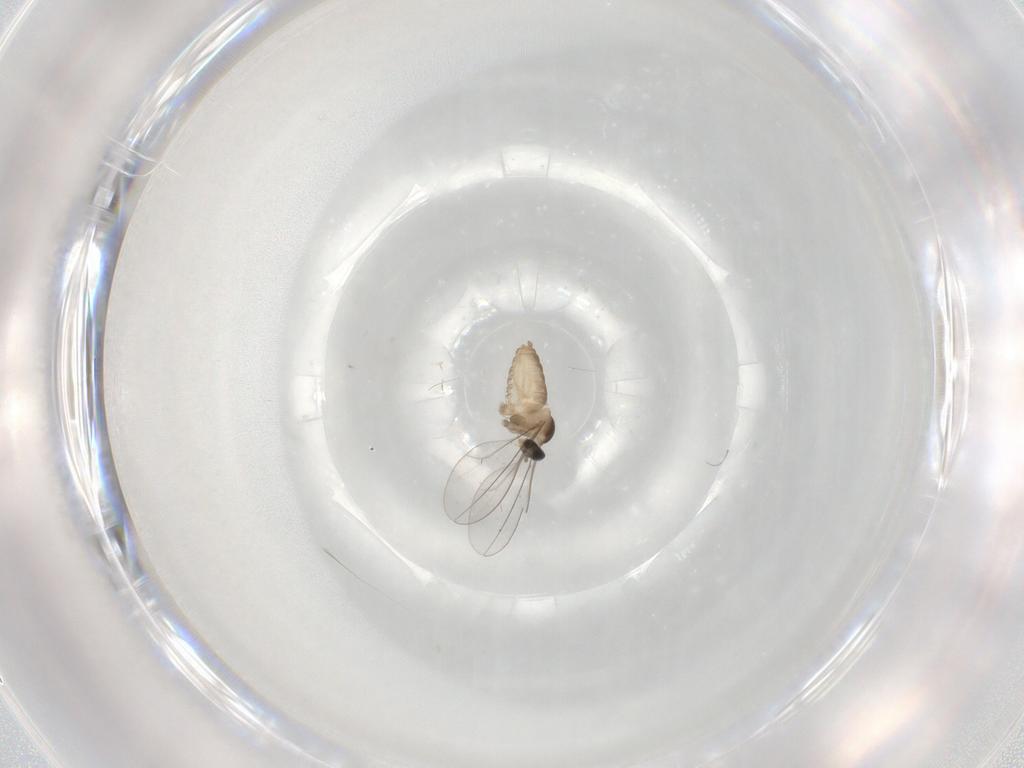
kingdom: Animalia
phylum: Arthropoda
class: Insecta
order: Diptera
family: Cecidomyiidae
